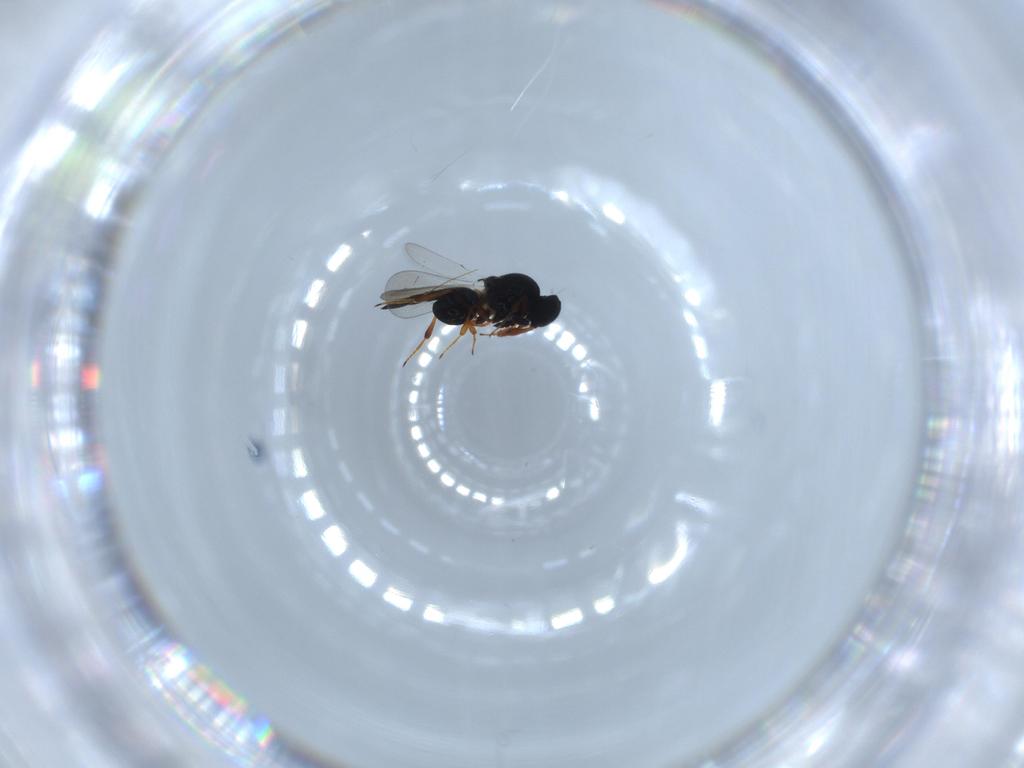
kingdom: Animalia
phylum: Arthropoda
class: Insecta
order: Hymenoptera
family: Platygastridae
